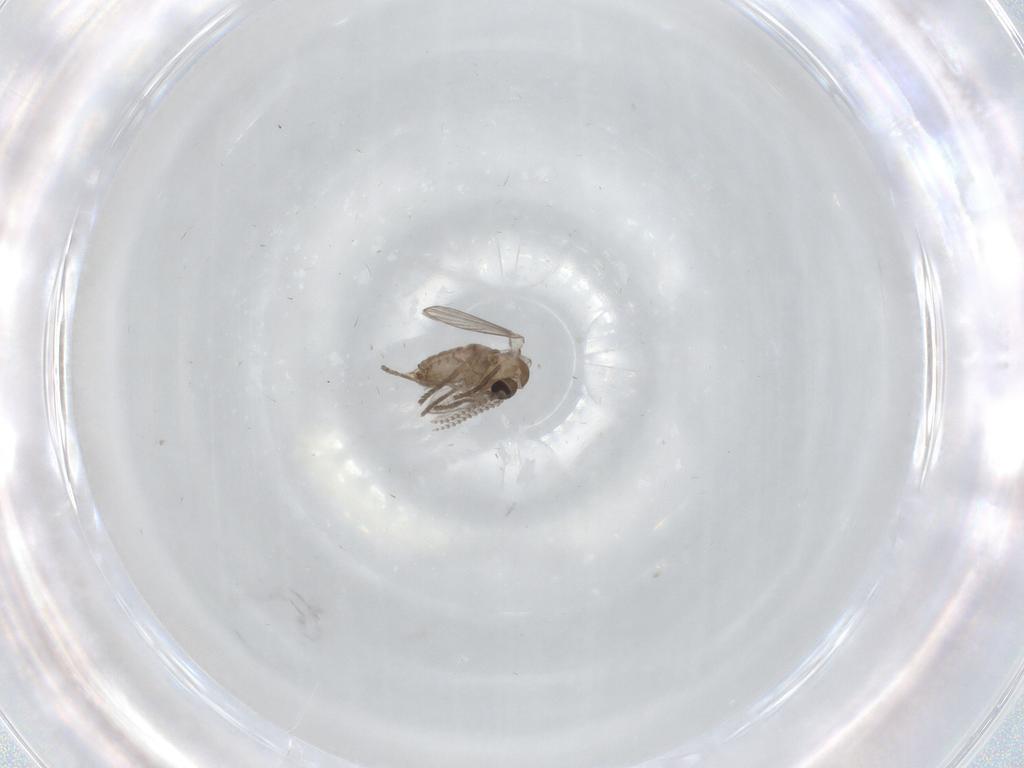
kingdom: Animalia
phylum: Arthropoda
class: Insecta
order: Diptera
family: Psychodidae
